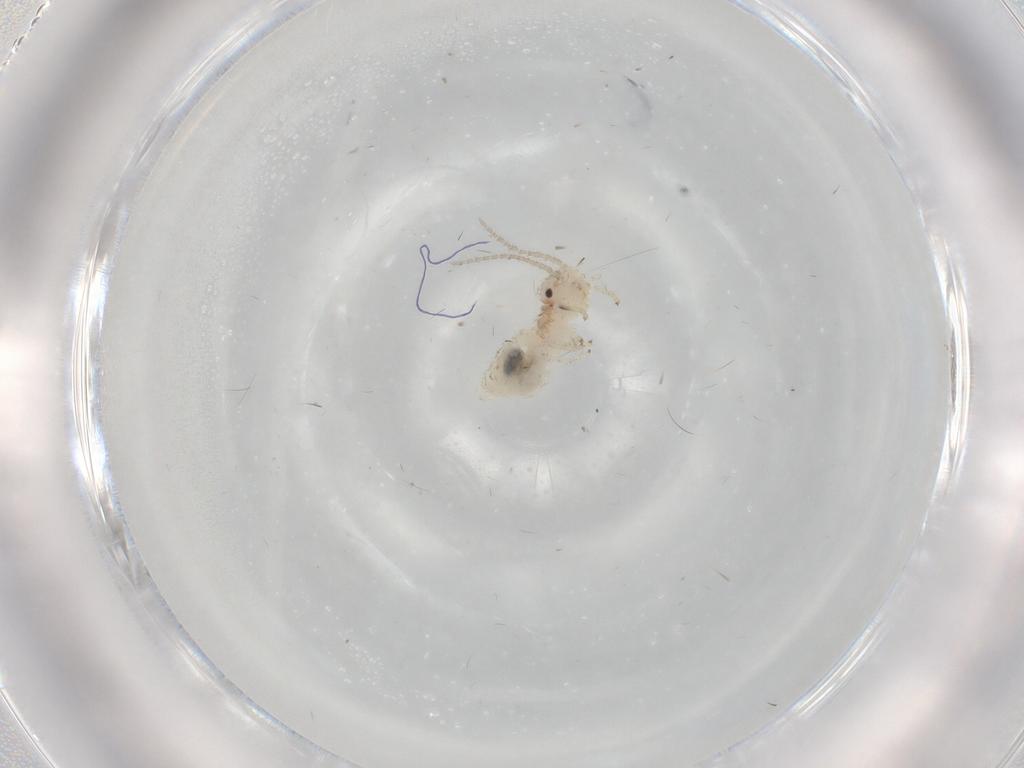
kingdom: Animalia
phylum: Arthropoda
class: Insecta
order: Psocodea
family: Amphipsocidae
